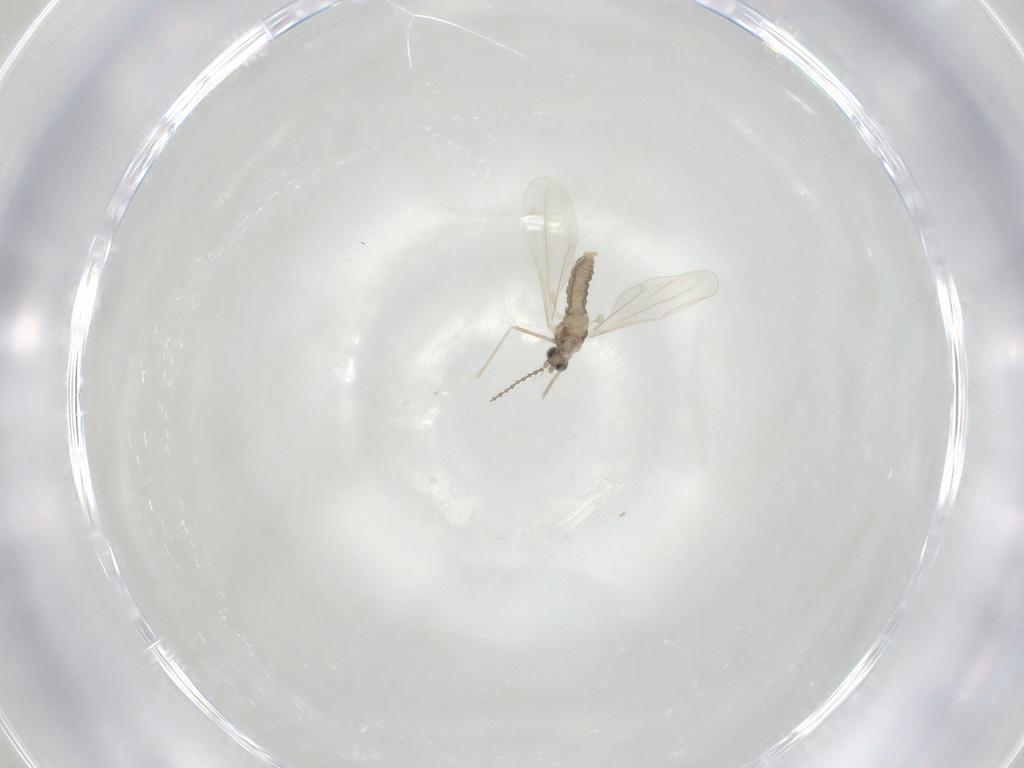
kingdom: Animalia
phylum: Arthropoda
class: Insecta
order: Diptera
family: Cecidomyiidae
